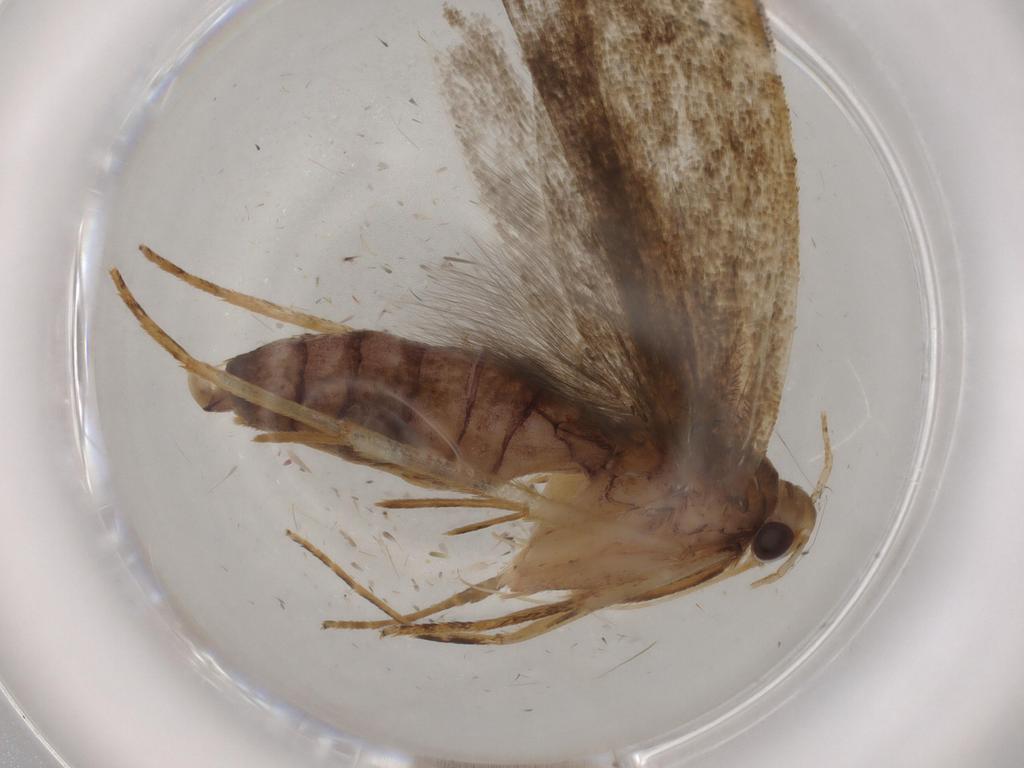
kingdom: Animalia
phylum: Arthropoda
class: Insecta
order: Lepidoptera
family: Gelechiidae
